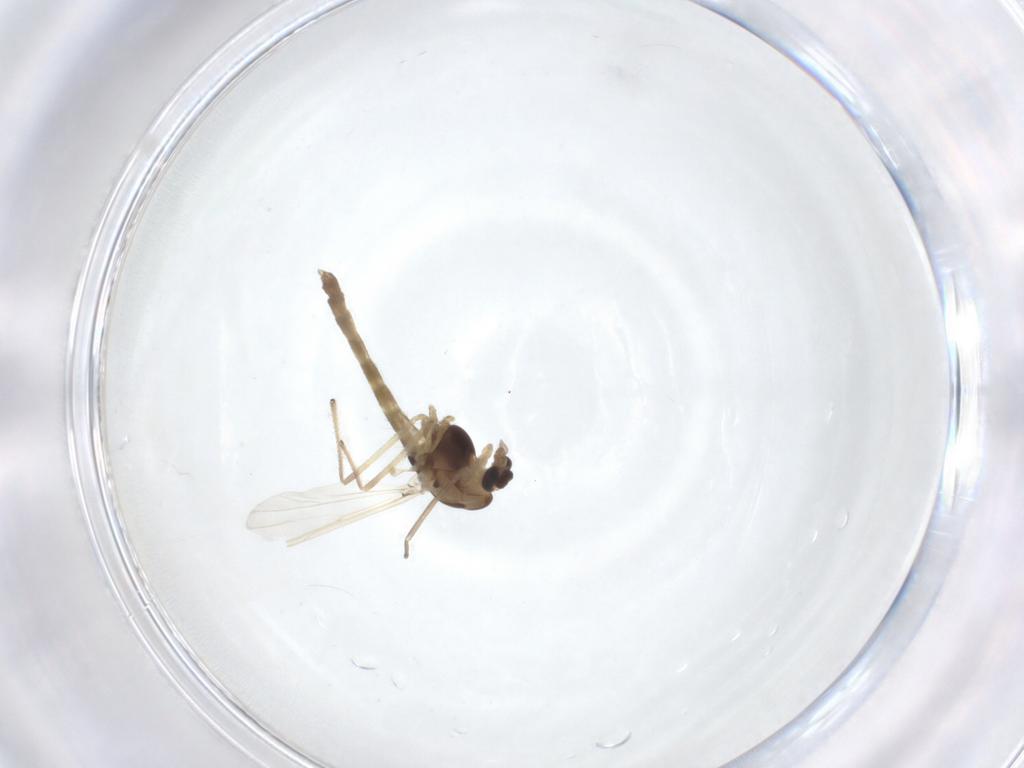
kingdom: Animalia
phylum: Arthropoda
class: Insecta
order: Diptera
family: Chironomidae
